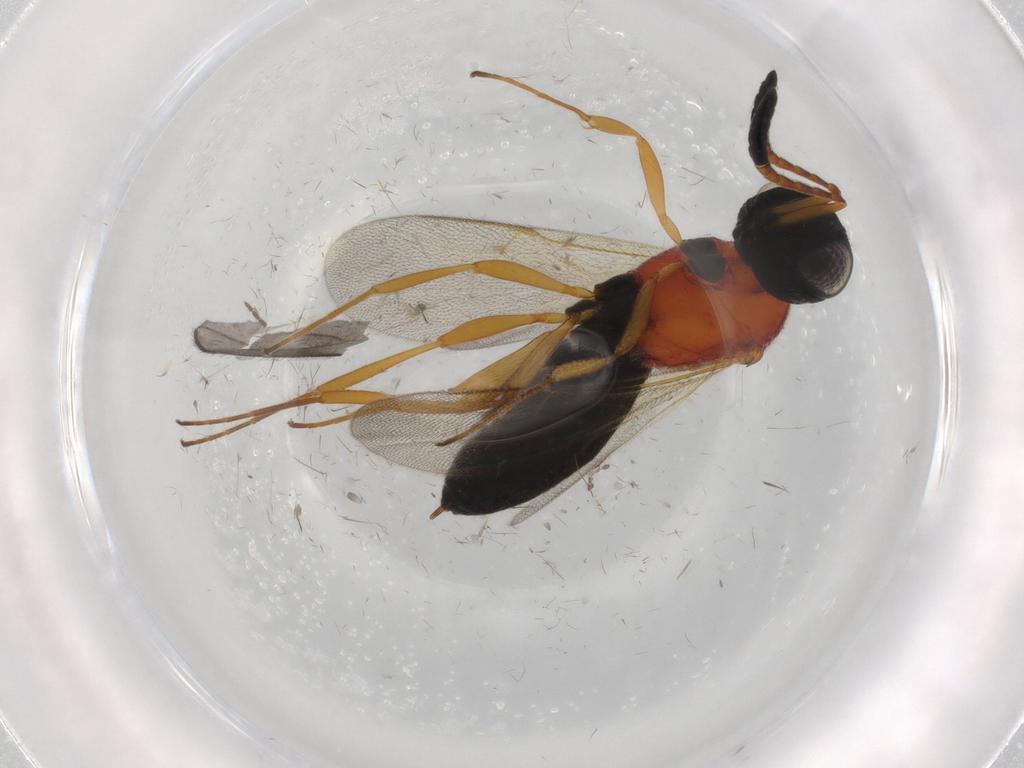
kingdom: Animalia
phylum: Arthropoda
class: Insecta
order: Hymenoptera
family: Scelionidae
